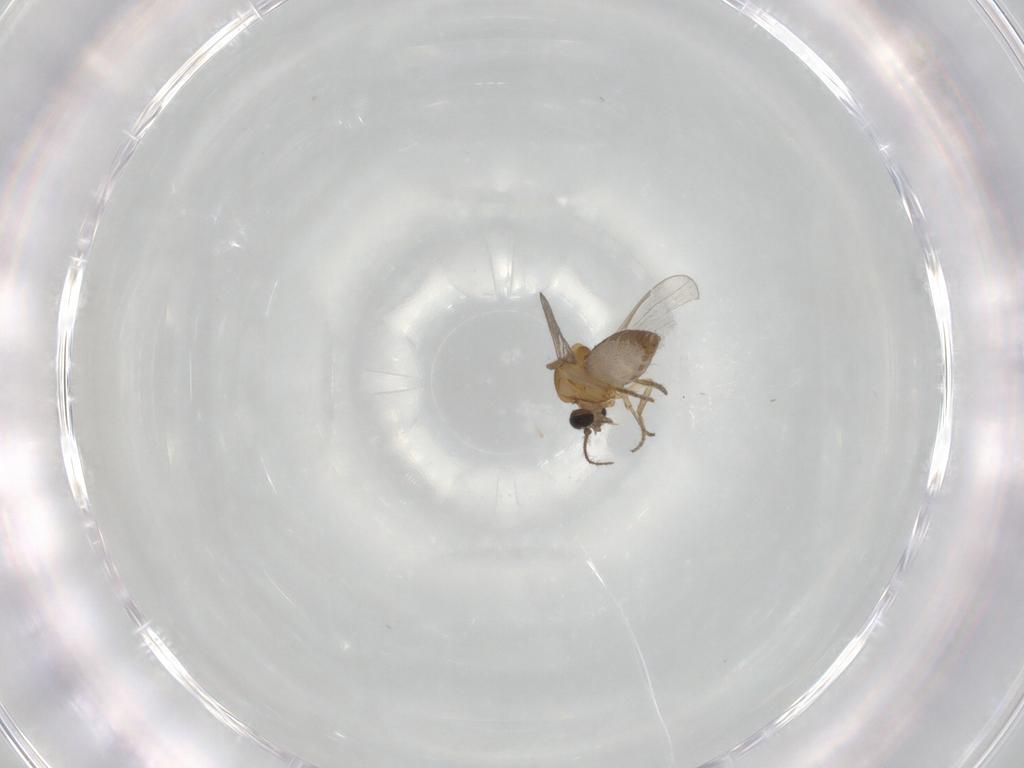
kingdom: Animalia
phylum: Arthropoda
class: Insecta
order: Diptera
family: Ceratopogonidae
